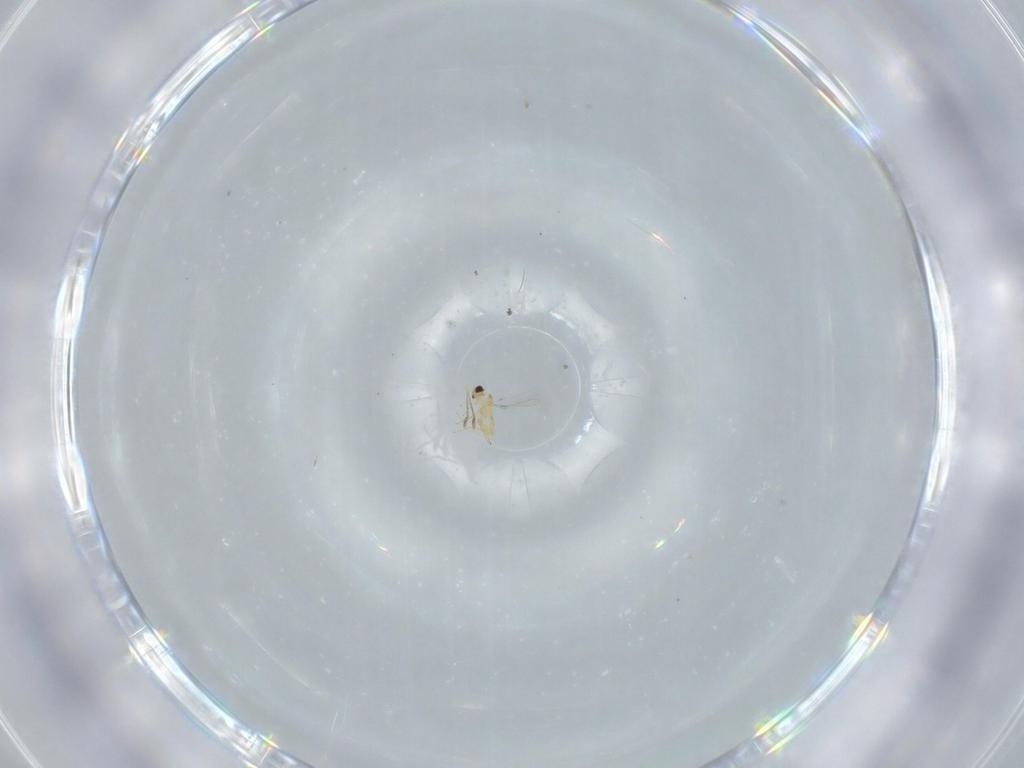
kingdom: Animalia
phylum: Arthropoda
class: Insecta
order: Hymenoptera
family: Mymaridae
